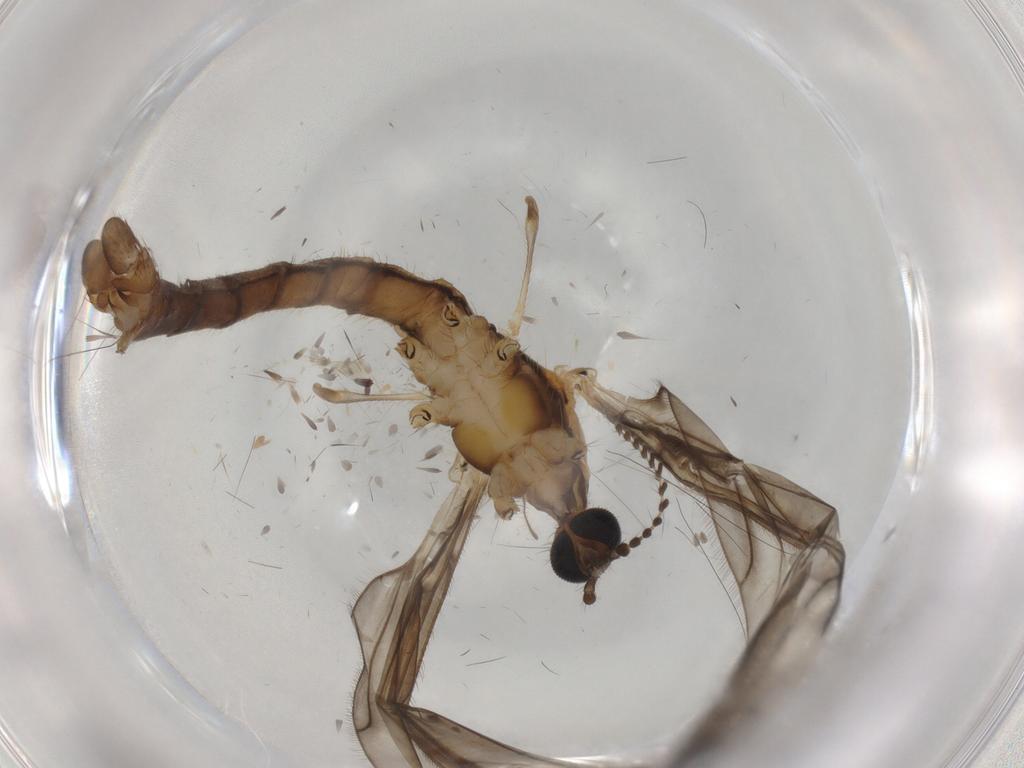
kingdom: Animalia
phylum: Arthropoda
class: Insecta
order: Diptera
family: Limoniidae
